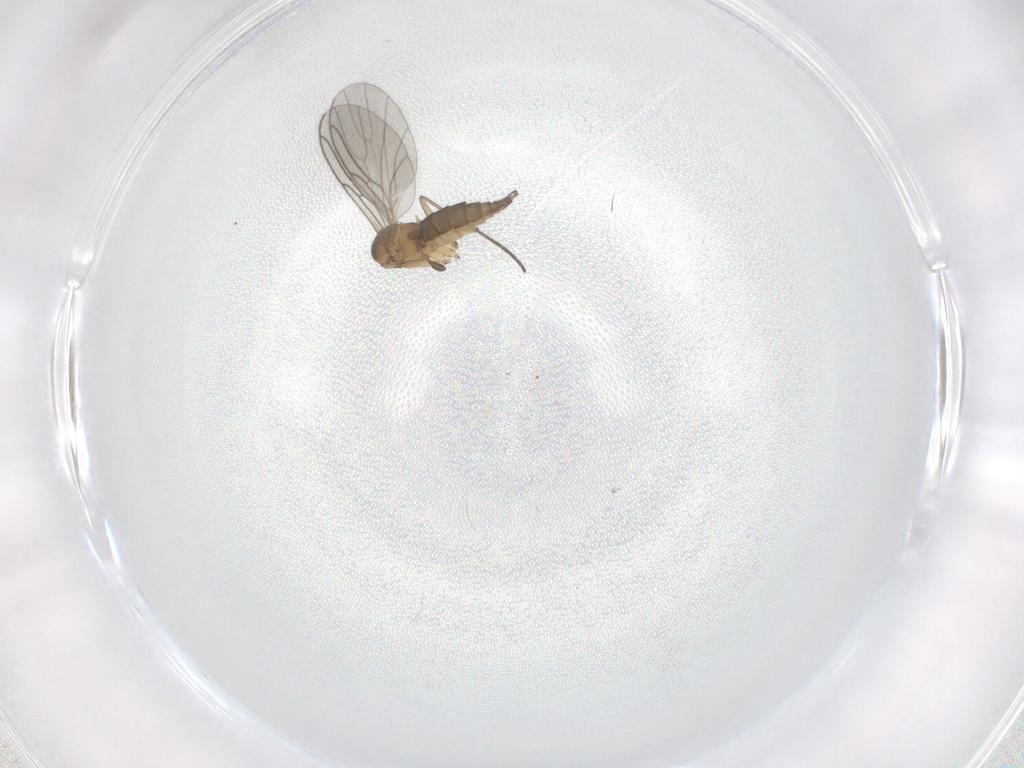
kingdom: Animalia
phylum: Arthropoda
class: Insecta
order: Diptera
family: Sciaridae
